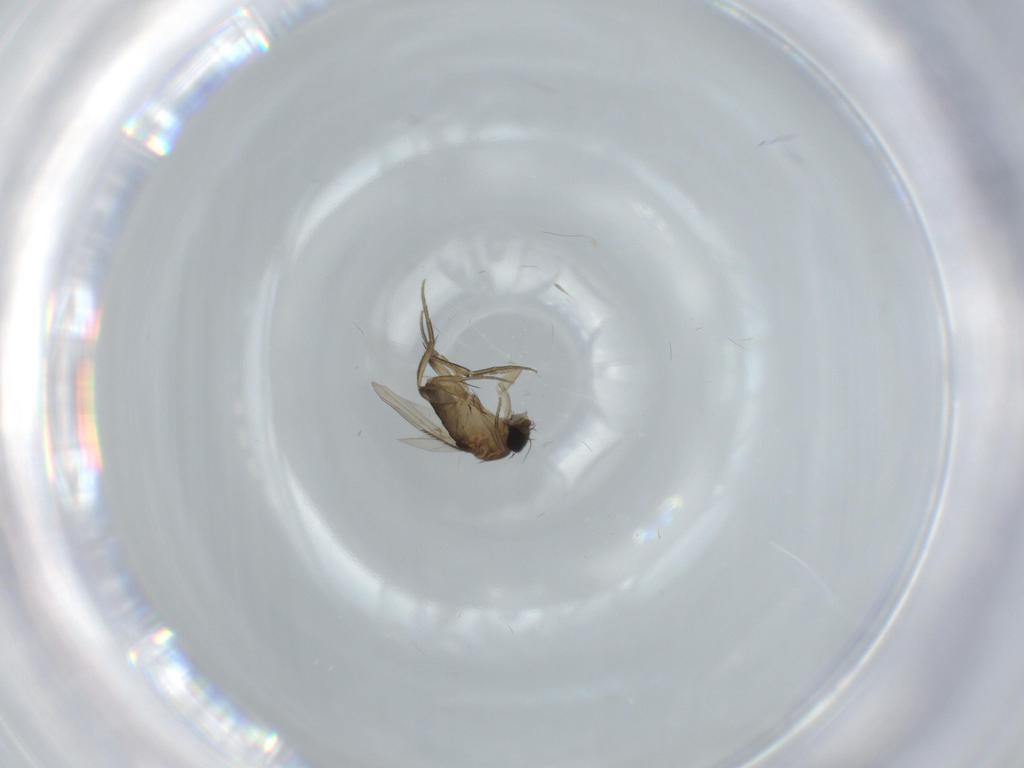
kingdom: Animalia
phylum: Arthropoda
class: Insecta
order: Diptera
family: Phoridae
